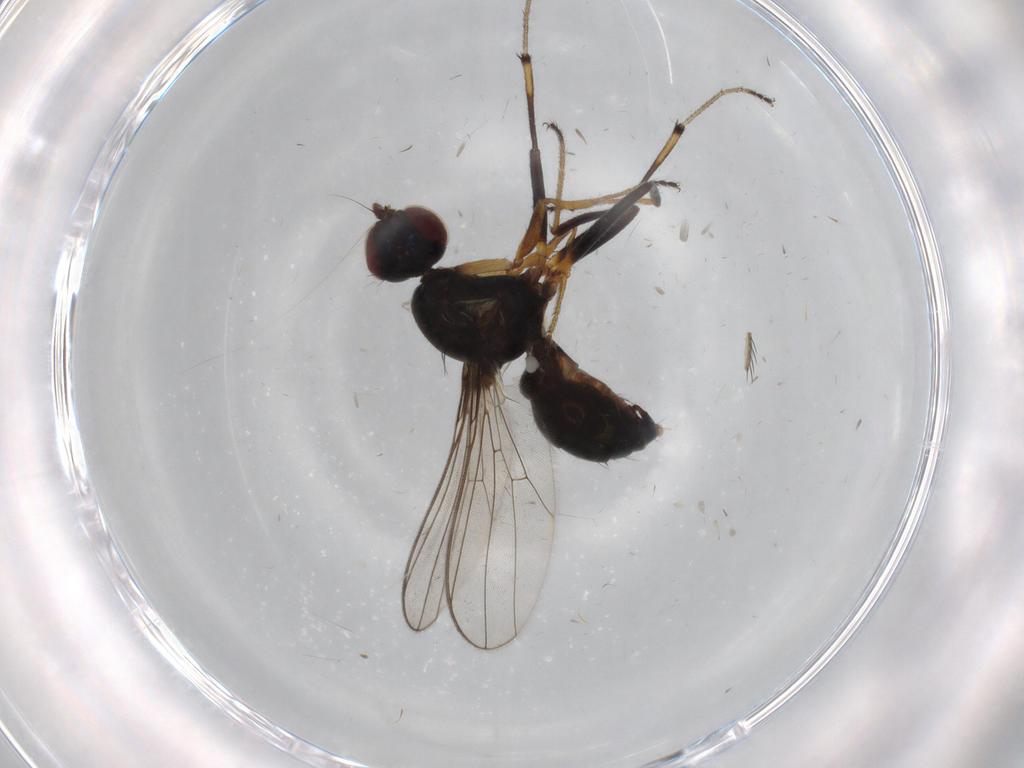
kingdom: Animalia
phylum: Arthropoda
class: Insecta
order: Diptera
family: Sepsidae
